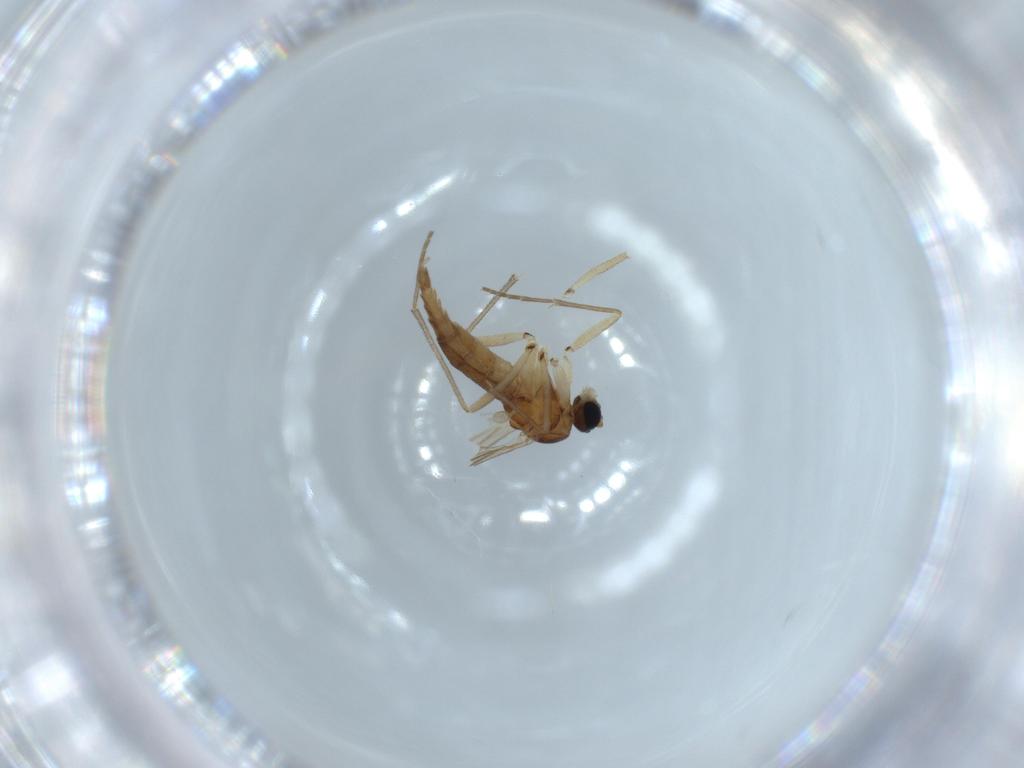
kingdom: Animalia
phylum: Arthropoda
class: Insecta
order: Diptera
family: Sciaridae
